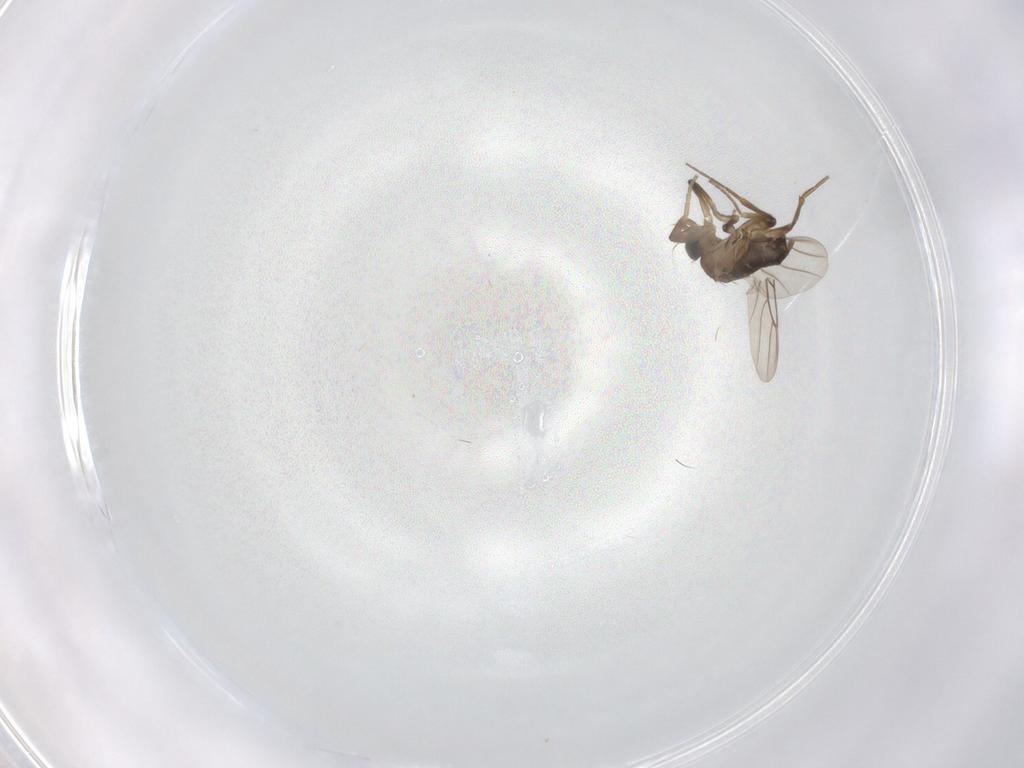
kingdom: Animalia
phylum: Arthropoda
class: Insecta
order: Diptera
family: Phoridae
